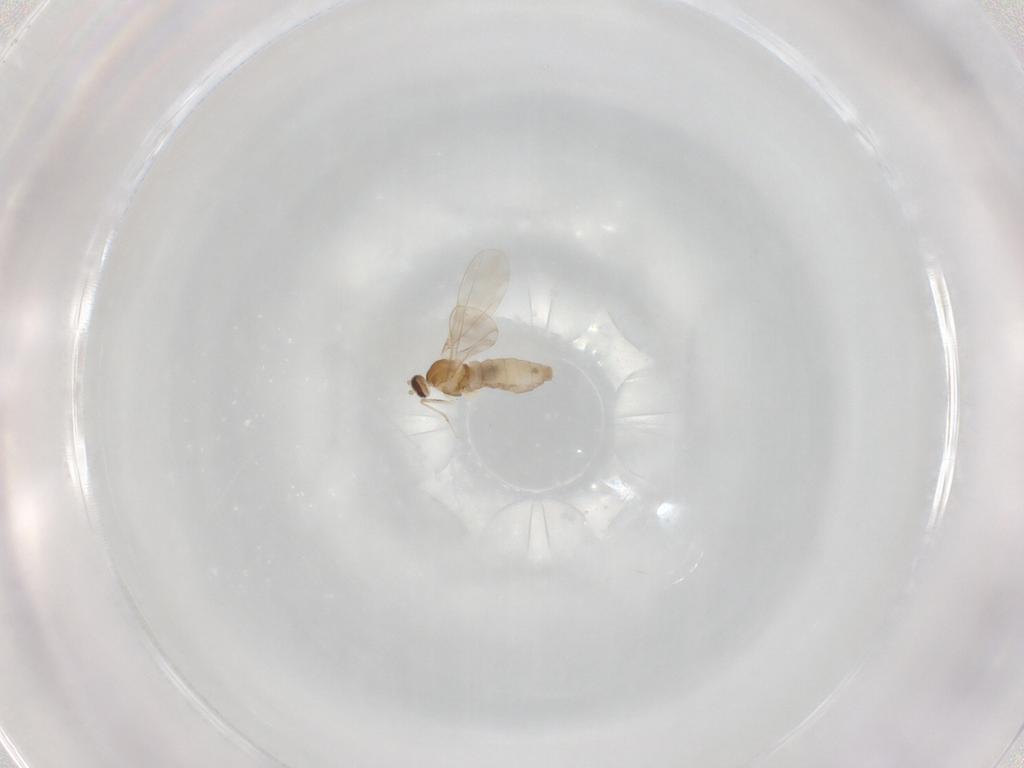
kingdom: Animalia
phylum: Arthropoda
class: Insecta
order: Diptera
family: Cecidomyiidae
